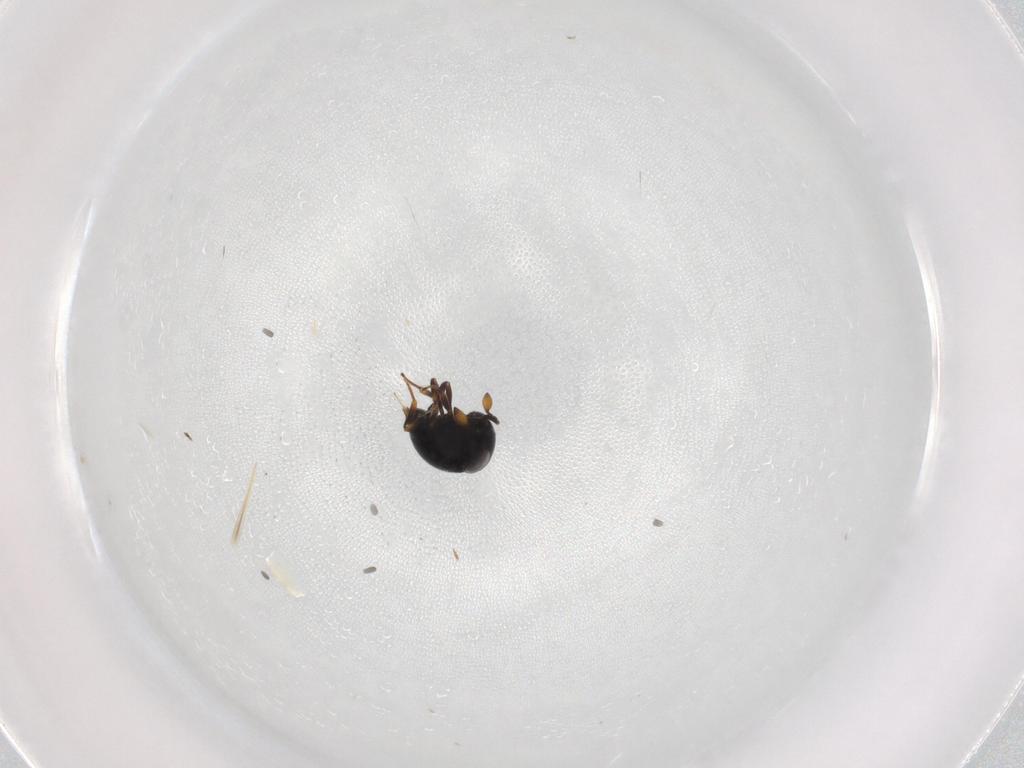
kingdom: Animalia
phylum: Arthropoda
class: Insecta
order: Hymenoptera
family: Scelionidae
